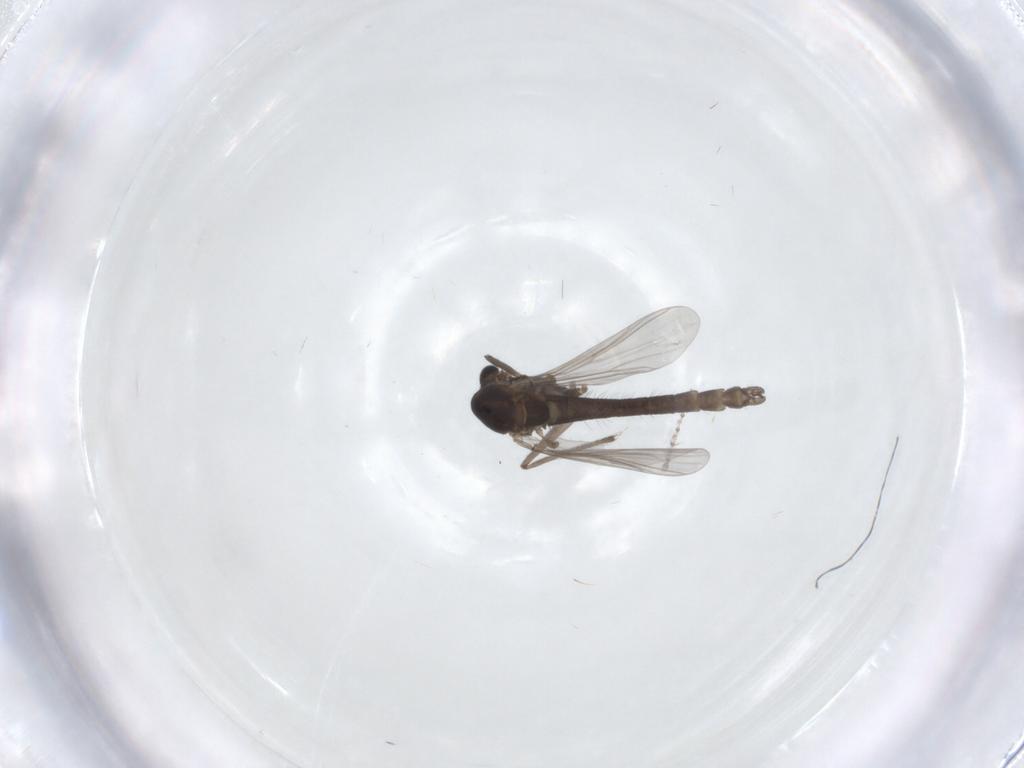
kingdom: Animalia
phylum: Arthropoda
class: Insecta
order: Diptera
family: Chironomidae
